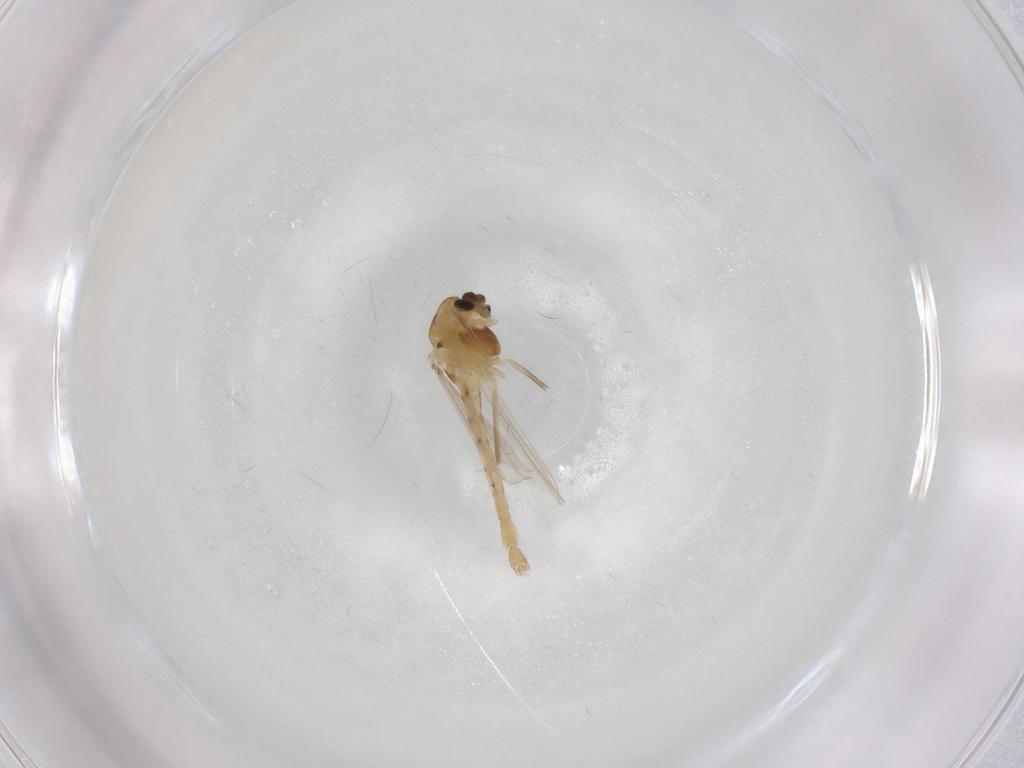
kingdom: Animalia
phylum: Arthropoda
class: Insecta
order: Diptera
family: Chironomidae
